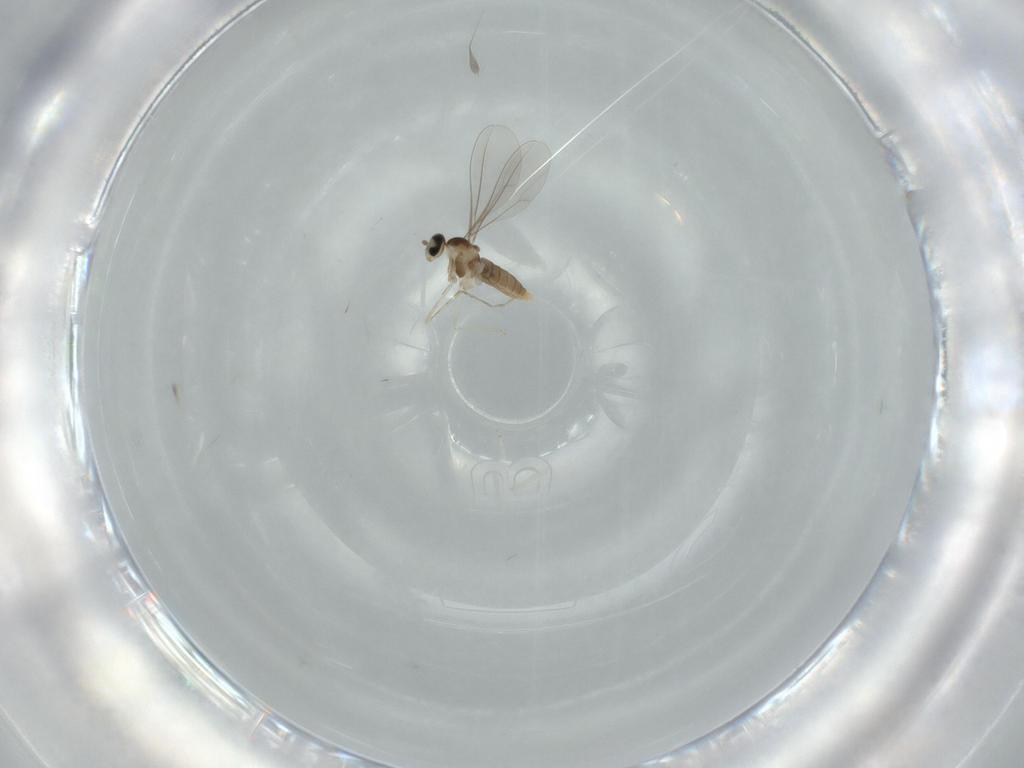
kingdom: Animalia
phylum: Arthropoda
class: Insecta
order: Diptera
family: Cecidomyiidae
